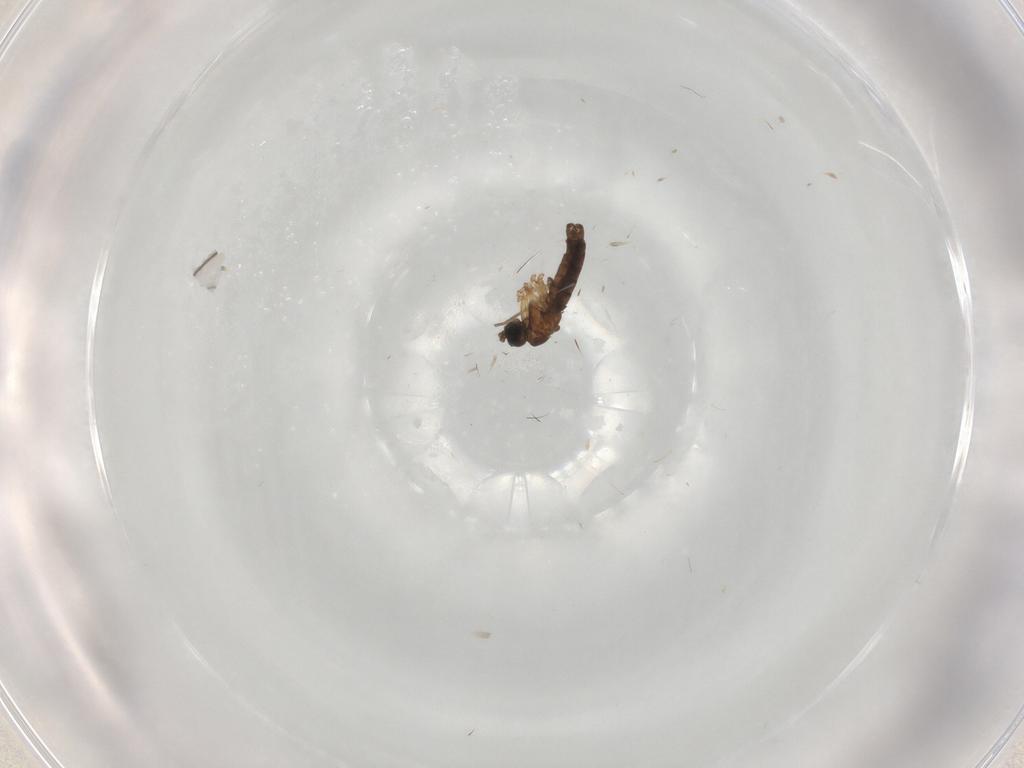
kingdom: Animalia
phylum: Arthropoda
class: Insecta
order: Diptera
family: Sciaridae
